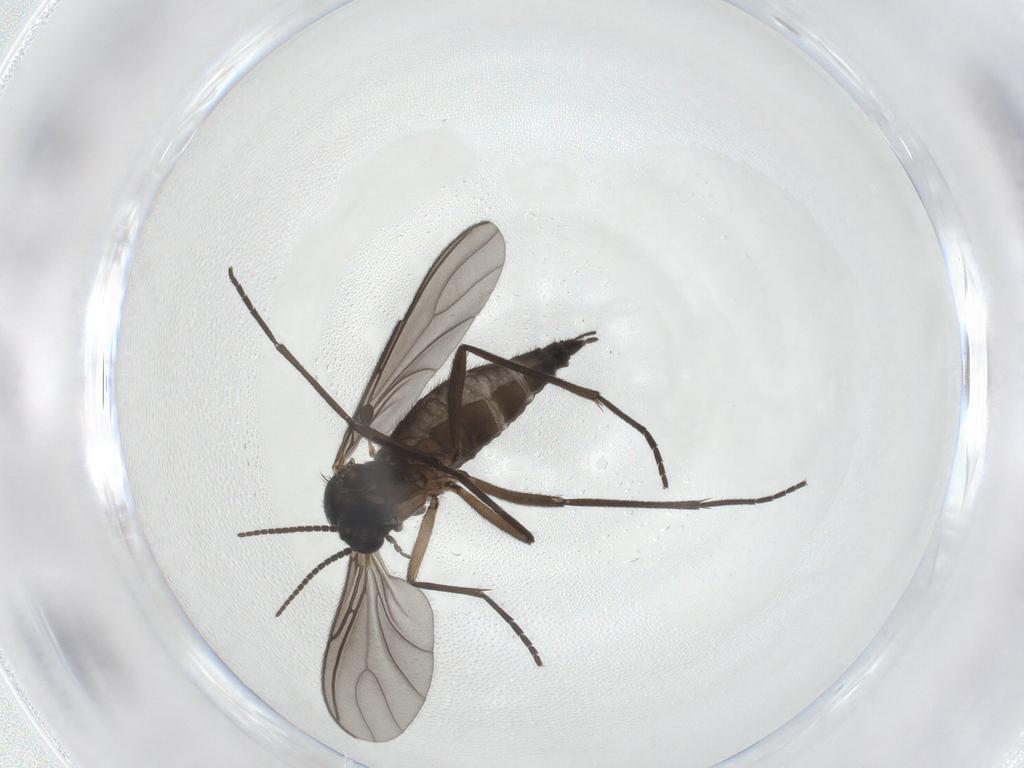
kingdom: Animalia
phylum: Arthropoda
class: Insecta
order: Diptera
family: Sciaridae
